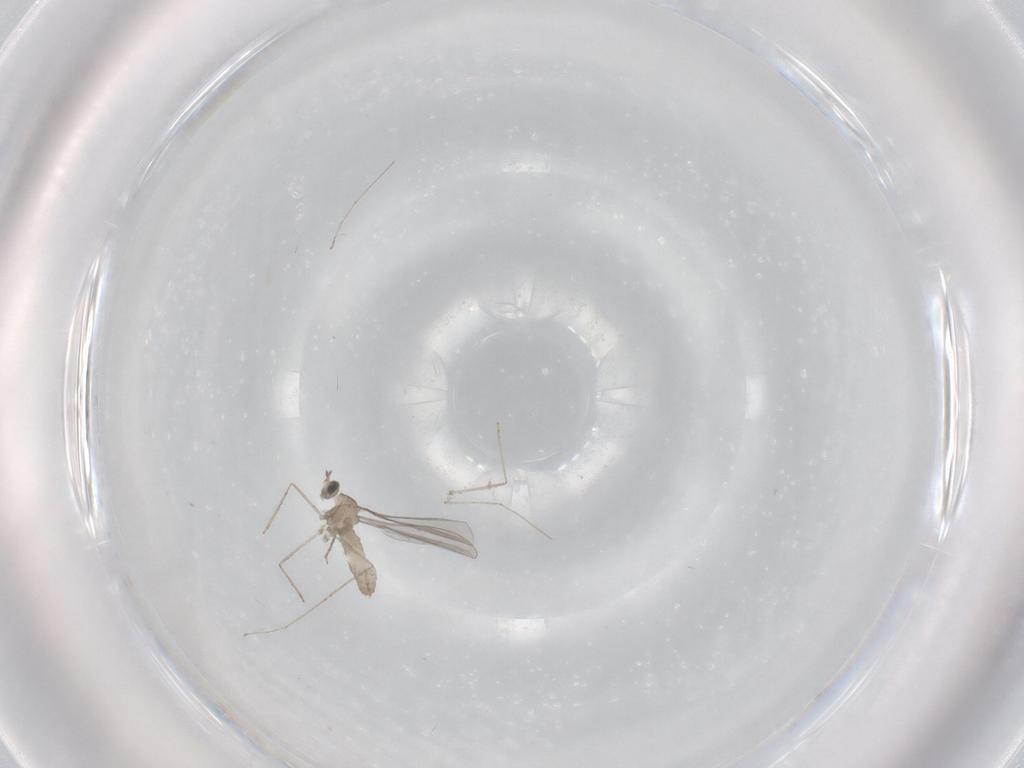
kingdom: Animalia
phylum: Arthropoda
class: Insecta
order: Diptera
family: Cecidomyiidae
